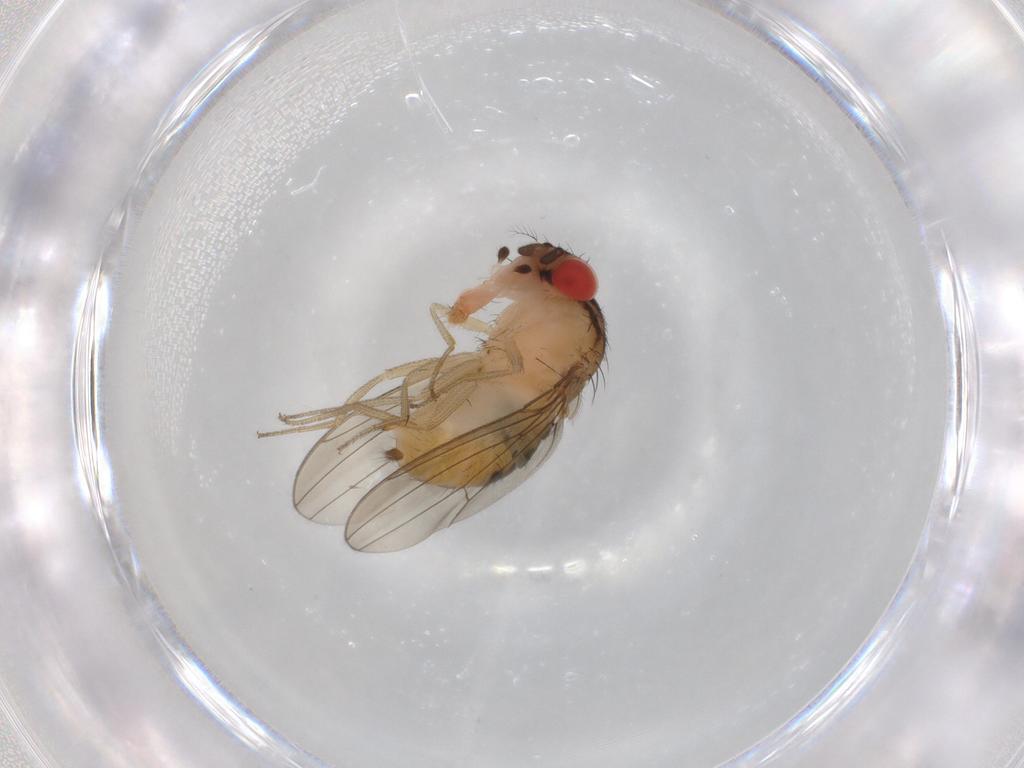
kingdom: Animalia
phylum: Arthropoda
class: Insecta
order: Diptera
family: Drosophilidae
